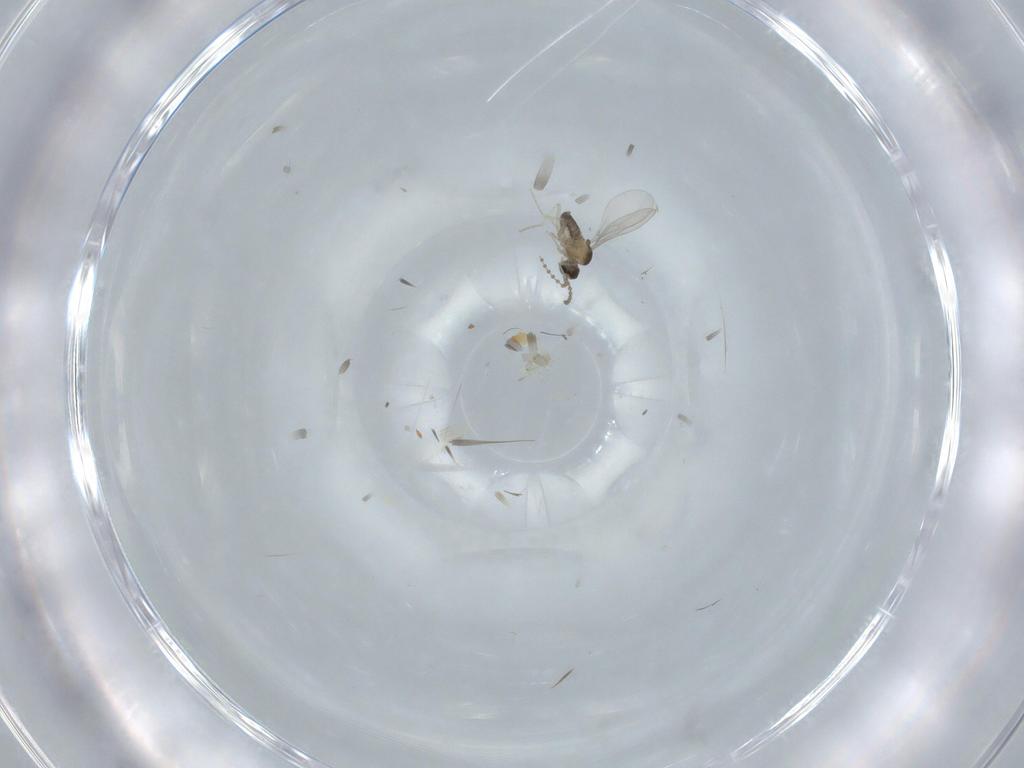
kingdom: Animalia
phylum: Arthropoda
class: Insecta
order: Diptera
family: Cecidomyiidae
